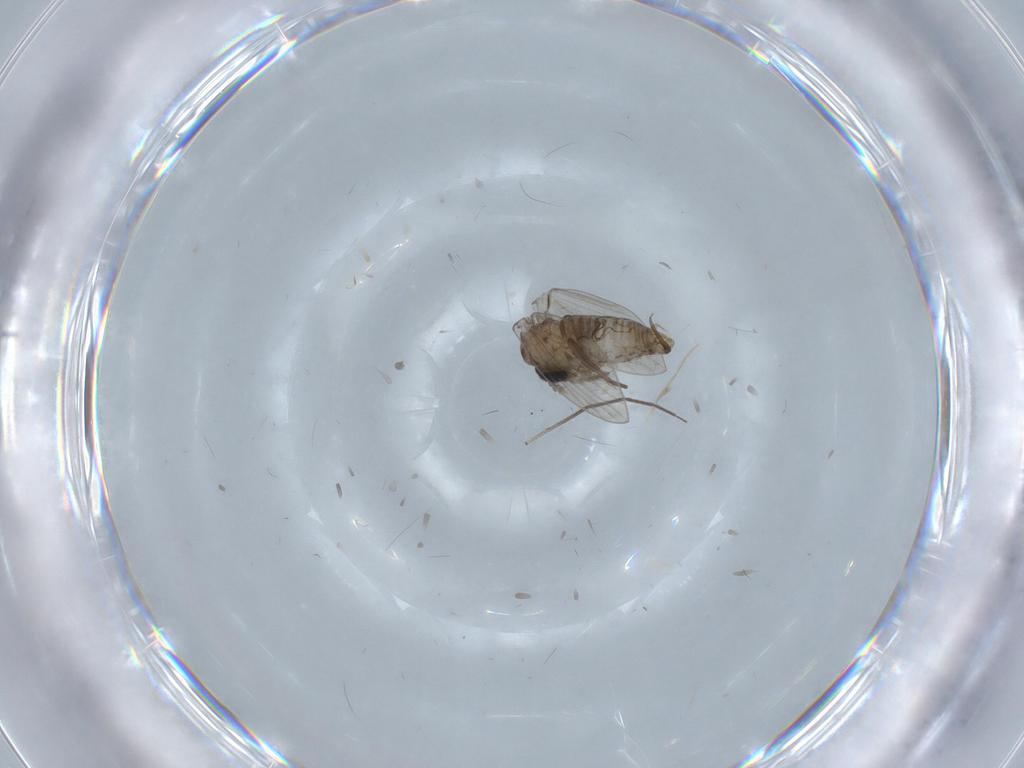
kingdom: Animalia
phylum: Arthropoda
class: Insecta
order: Diptera
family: Drosophilidae
